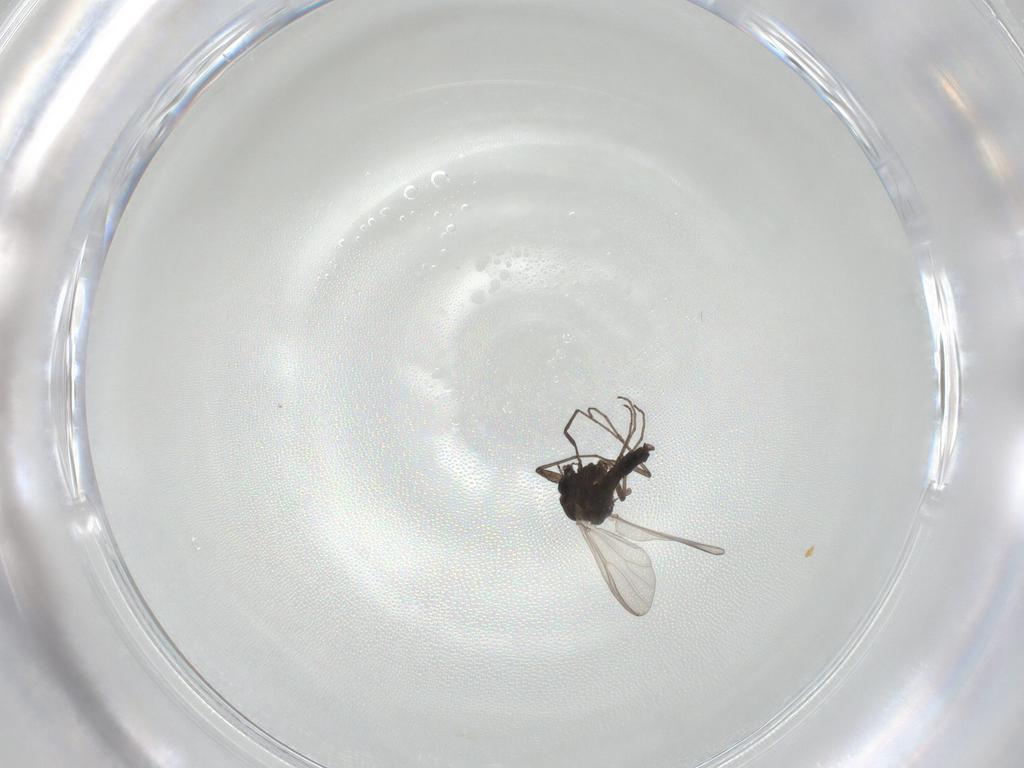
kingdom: Animalia
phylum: Arthropoda
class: Insecta
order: Diptera
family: Chironomidae
